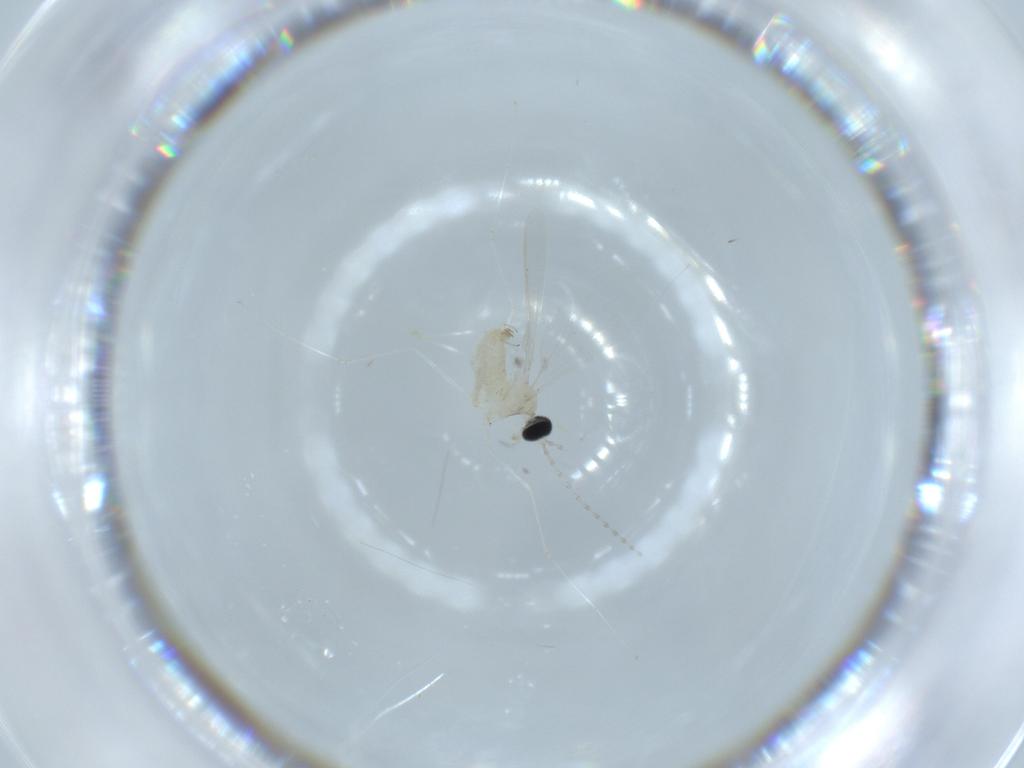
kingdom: Animalia
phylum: Arthropoda
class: Insecta
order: Diptera
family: Cecidomyiidae
